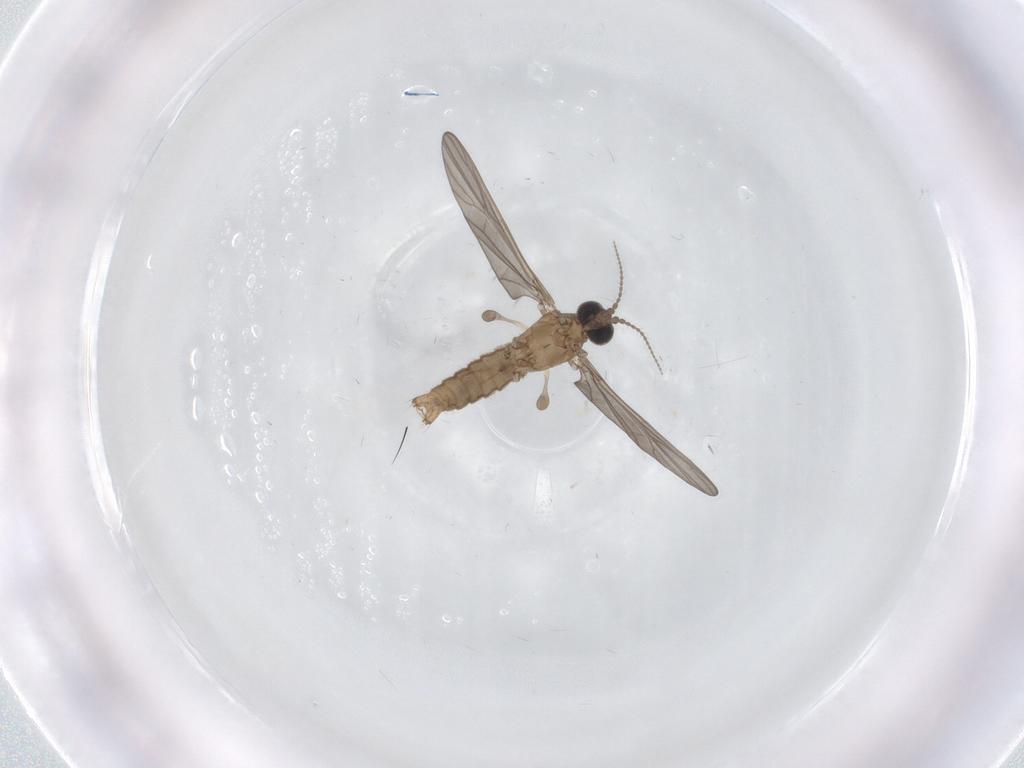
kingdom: Animalia
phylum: Arthropoda
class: Insecta
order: Diptera
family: Limoniidae
